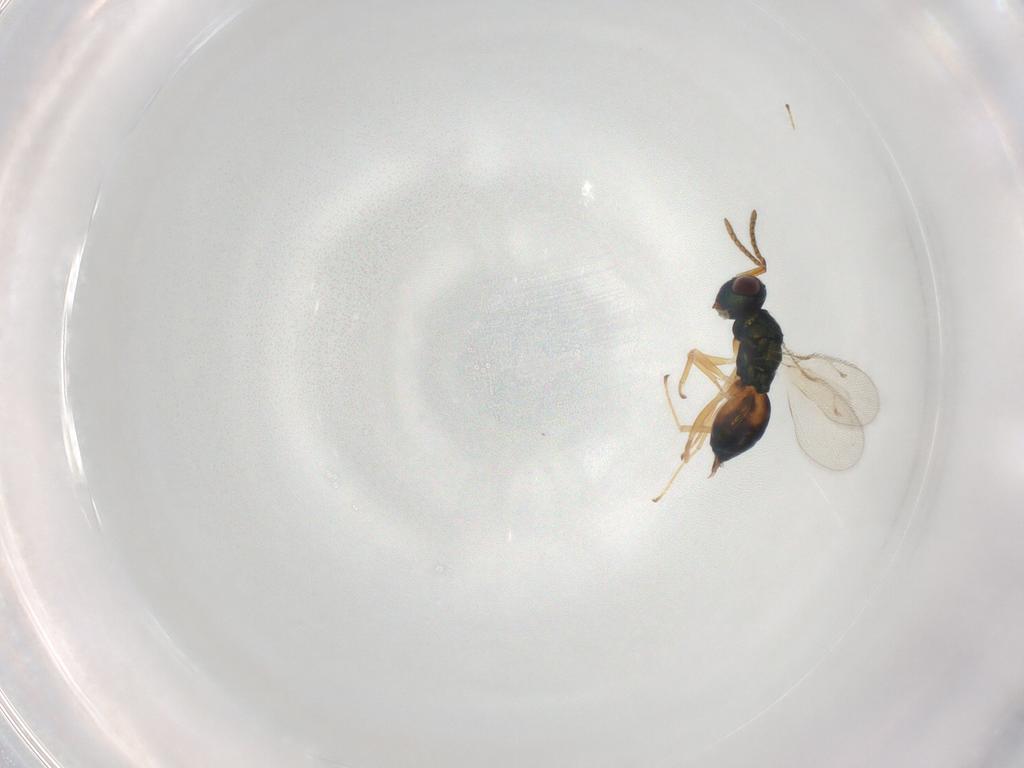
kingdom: Animalia
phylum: Arthropoda
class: Insecta
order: Hymenoptera
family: Pteromalidae
